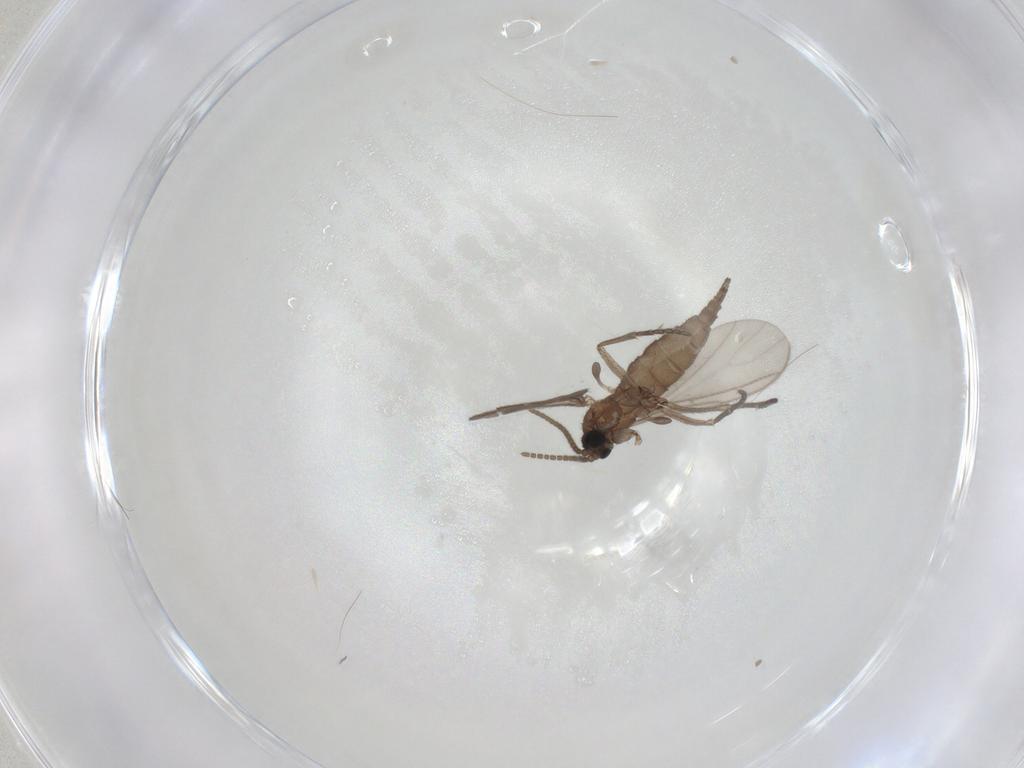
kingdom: Animalia
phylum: Arthropoda
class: Insecta
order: Diptera
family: Sciaridae
